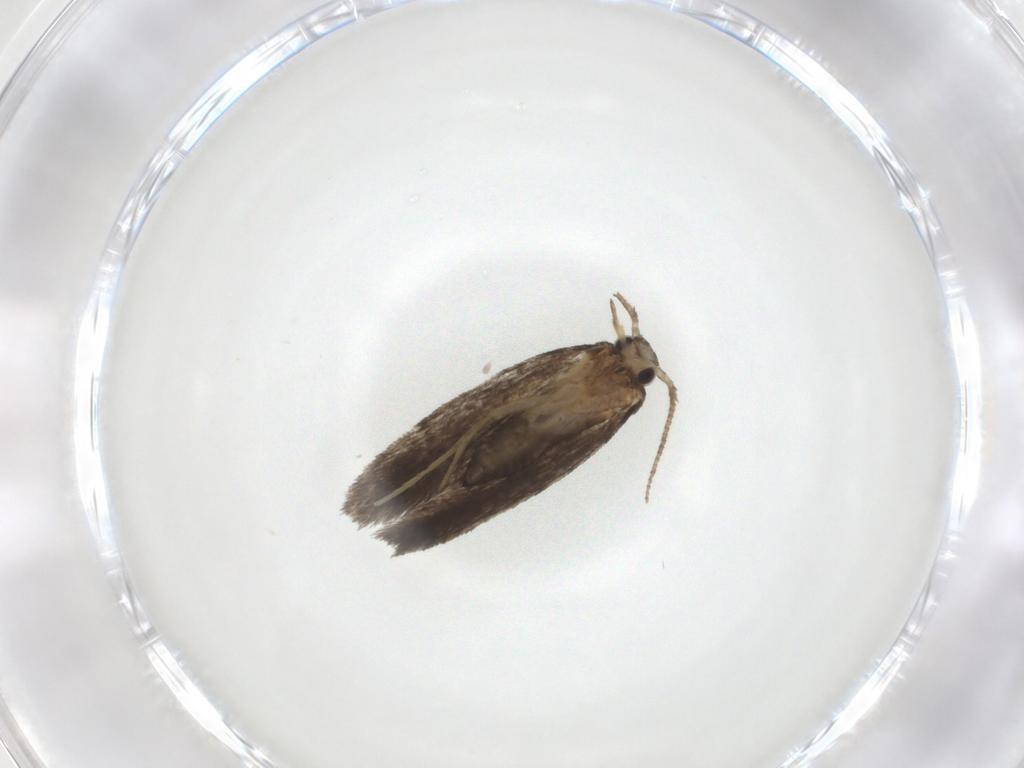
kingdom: Animalia
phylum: Arthropoda
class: Insecta
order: Lepidoptera
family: Psychidae
